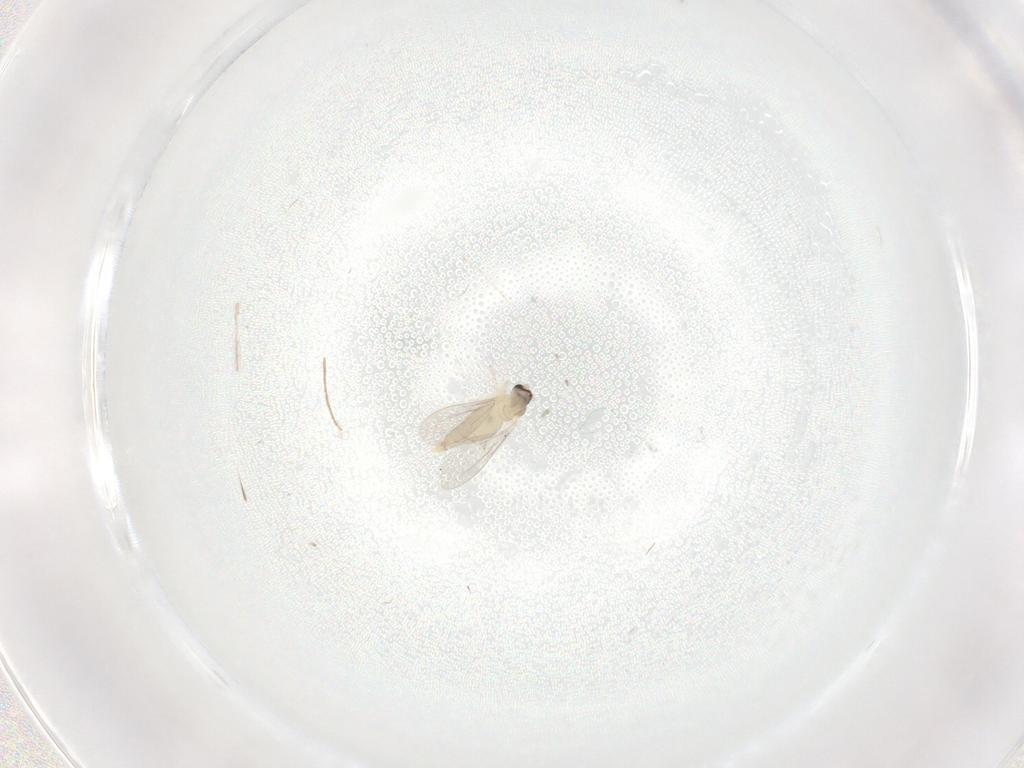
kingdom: Animalia
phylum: Arthropoda
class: Insecta
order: Diptera
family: Cecidomyiidae
